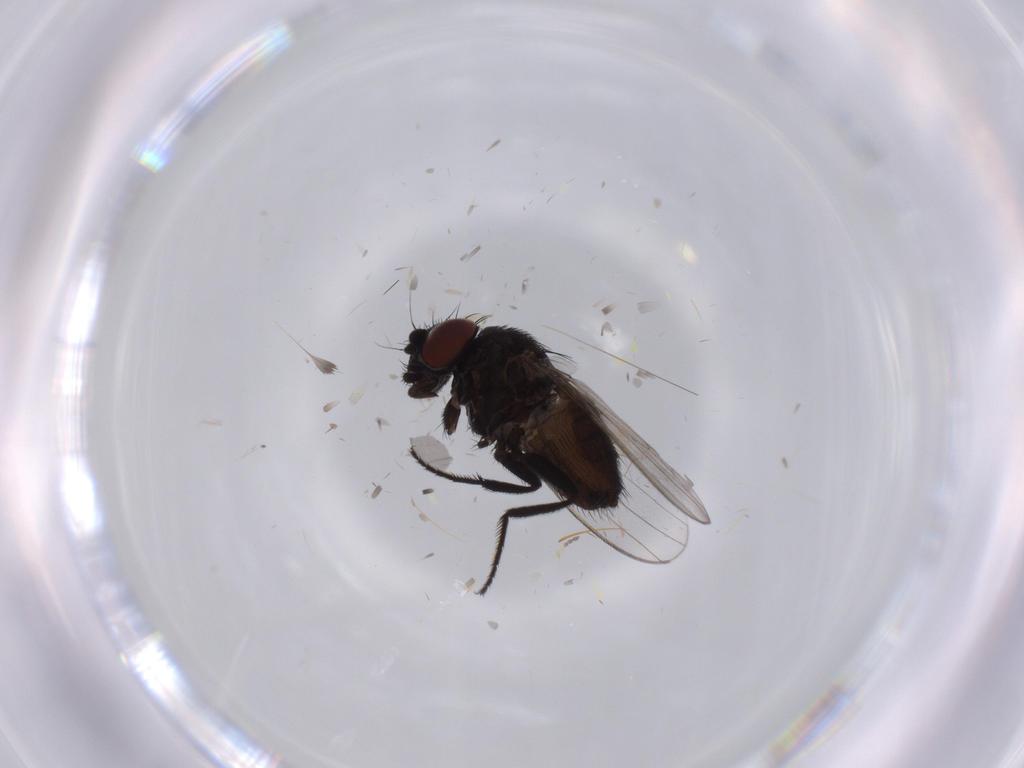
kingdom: Animalia
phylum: Arthropoda
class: Insecta
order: Diptera
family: Milichiidae
